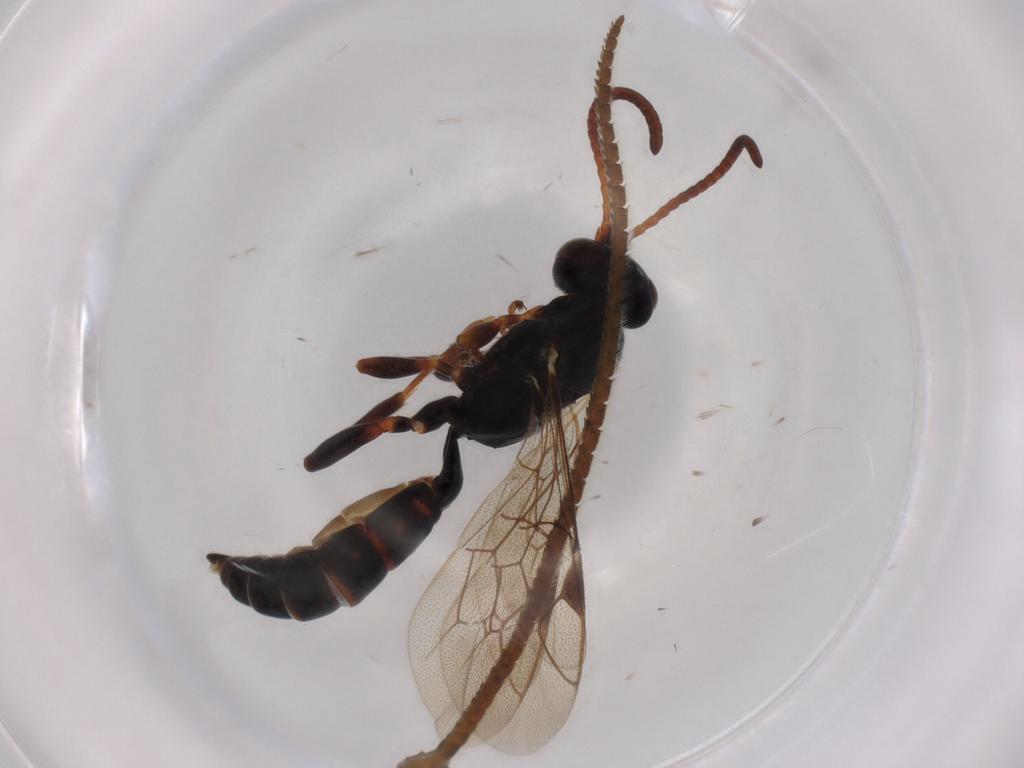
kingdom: Animalia
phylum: Arthropoda
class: Insecta
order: Hymenoptera
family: Ichneumonidae
